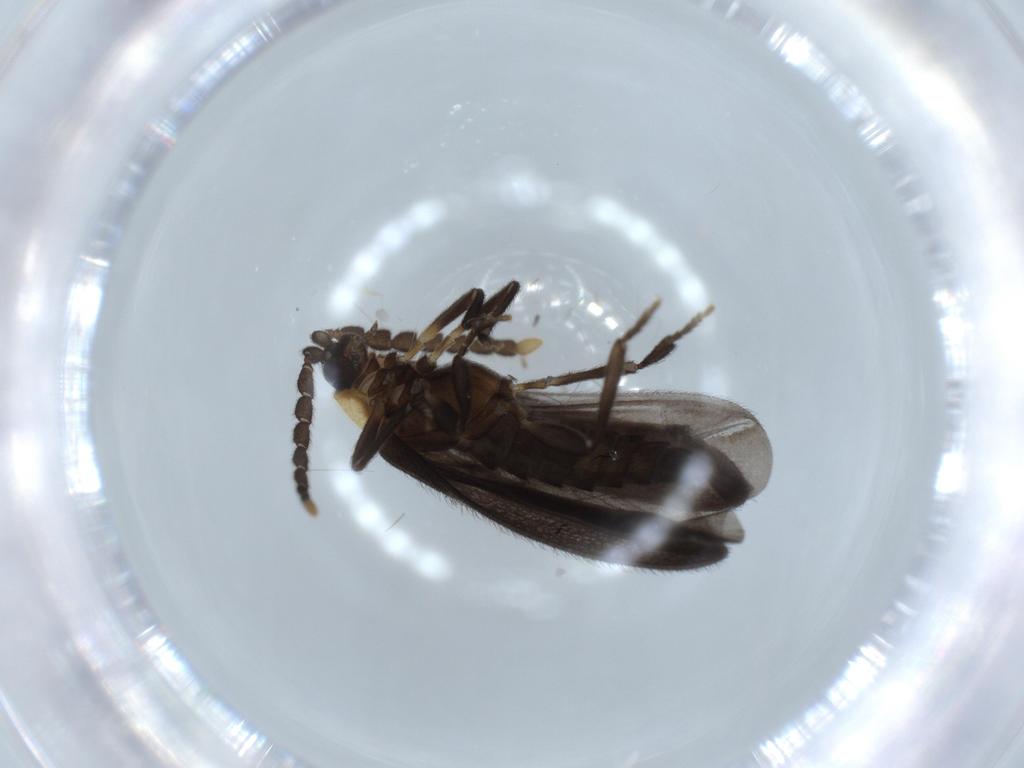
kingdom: Animalia
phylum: Arthropoda
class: Insecta
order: Coleoptera
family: Lycidae
